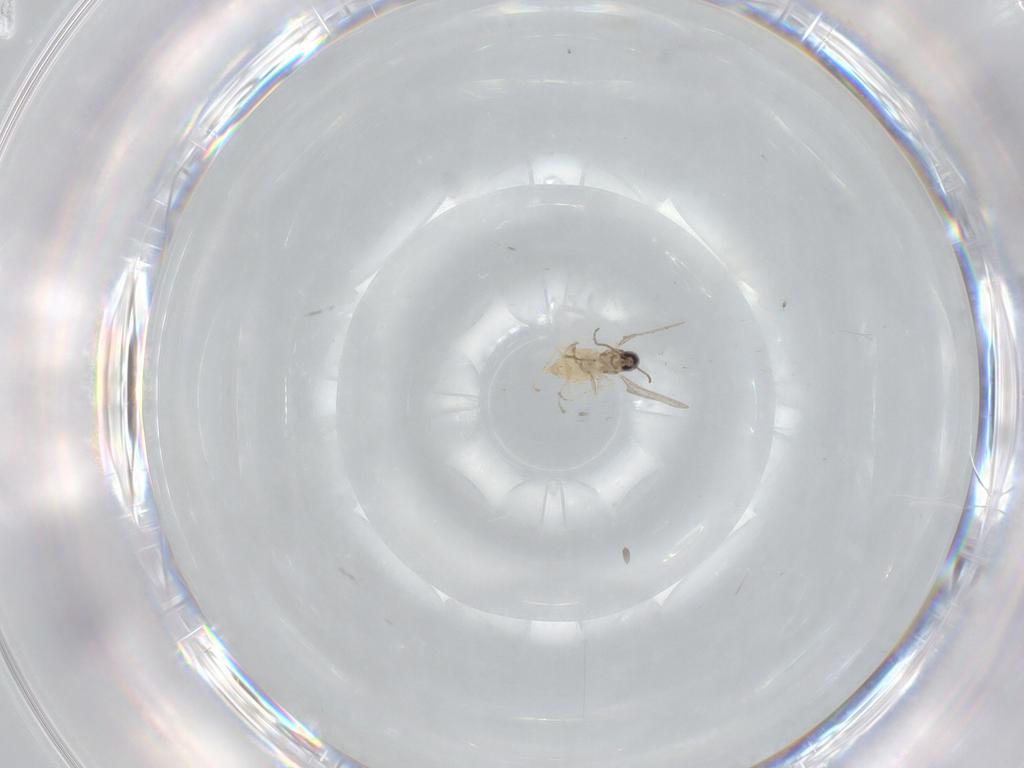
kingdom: Animalia
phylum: Arthropoda
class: Insecta
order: Diptera
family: Cecidomyiidae
